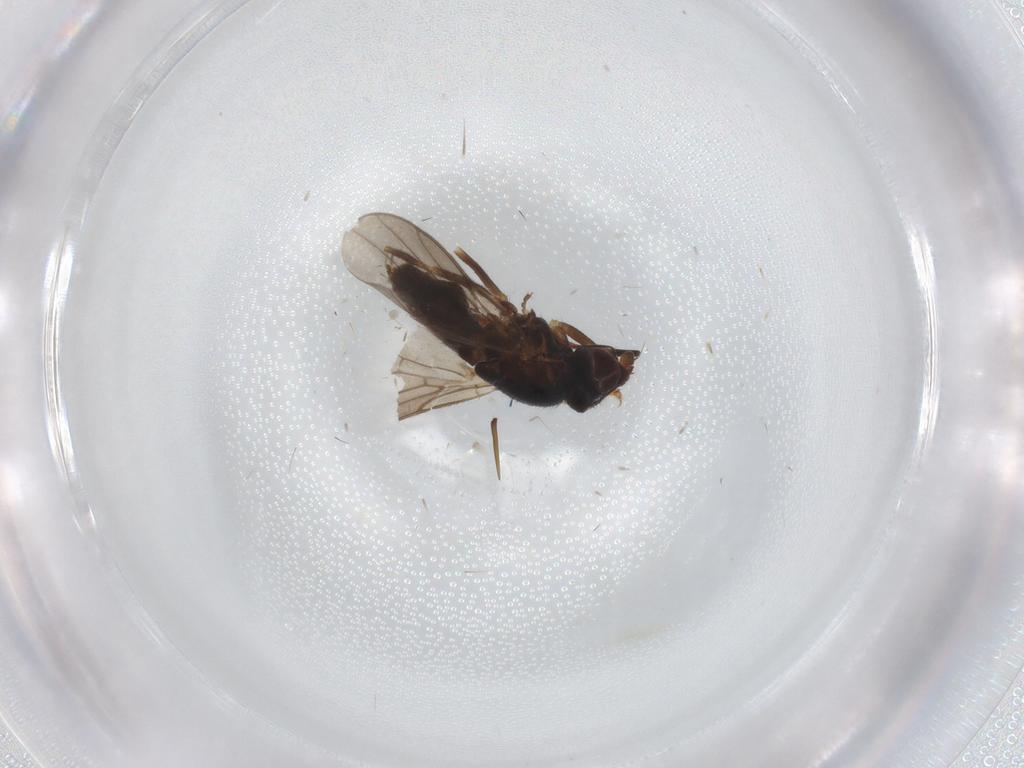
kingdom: Animalia
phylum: Arthropoda
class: Insecta
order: Diptera
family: Chloropidae
